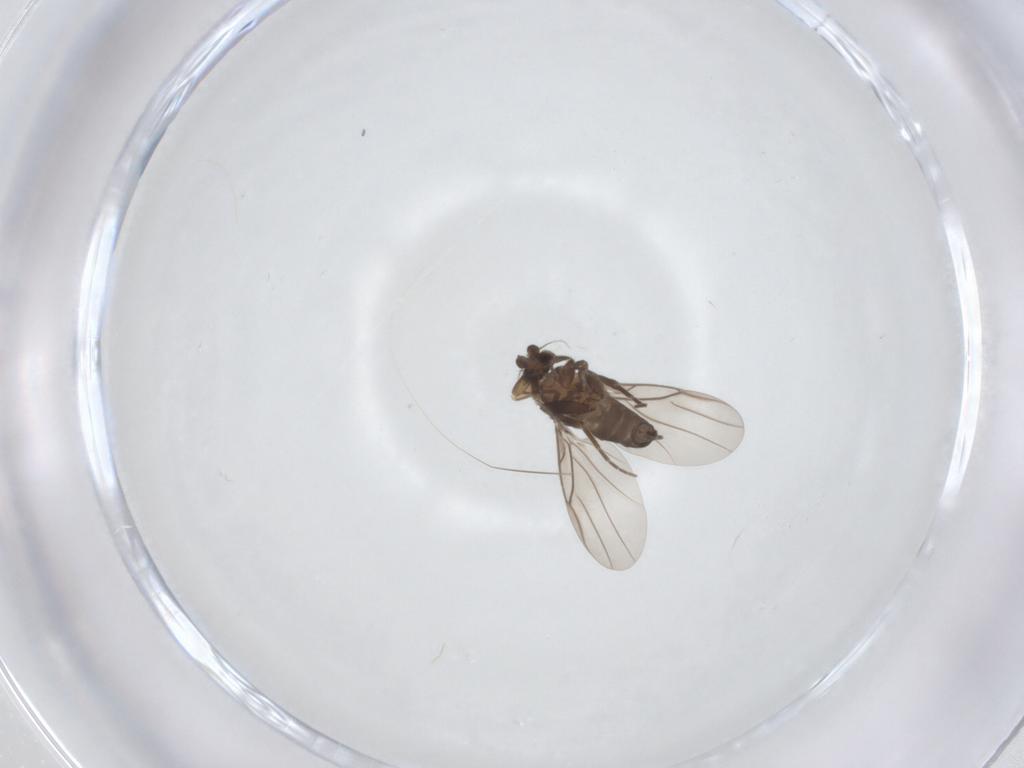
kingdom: Animalia
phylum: Arthropoda
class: Insecta
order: Diptera
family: Phoridae
